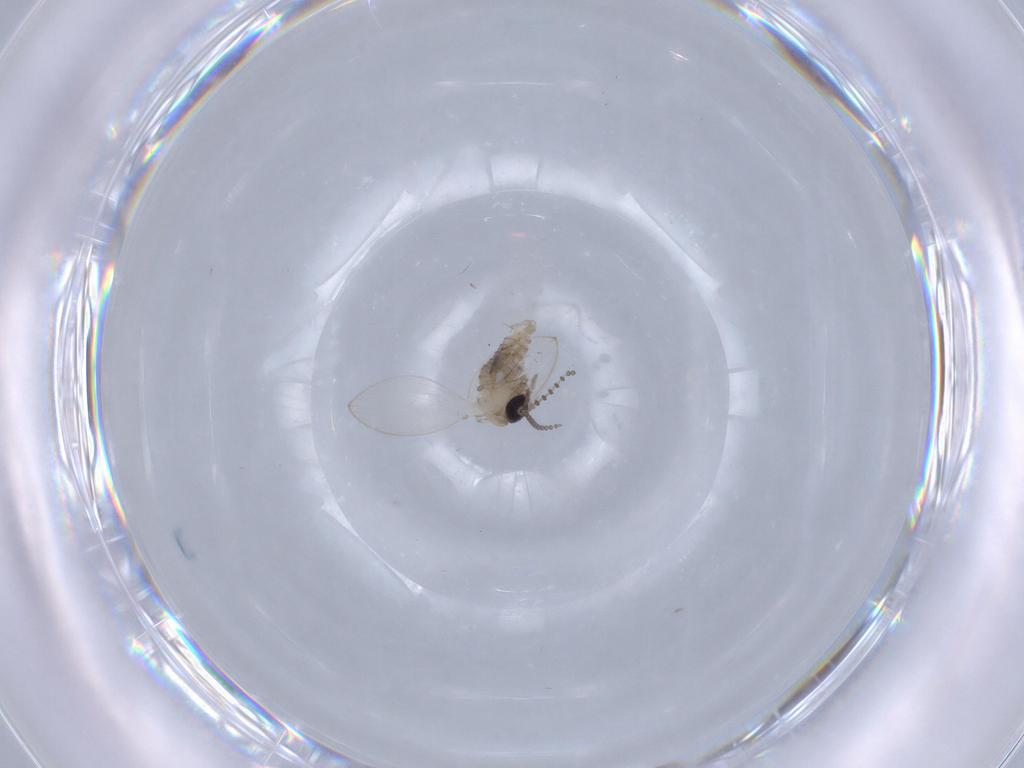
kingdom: Animalia
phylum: Arthropoda
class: Insecta
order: Diptera
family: Psychodidae
